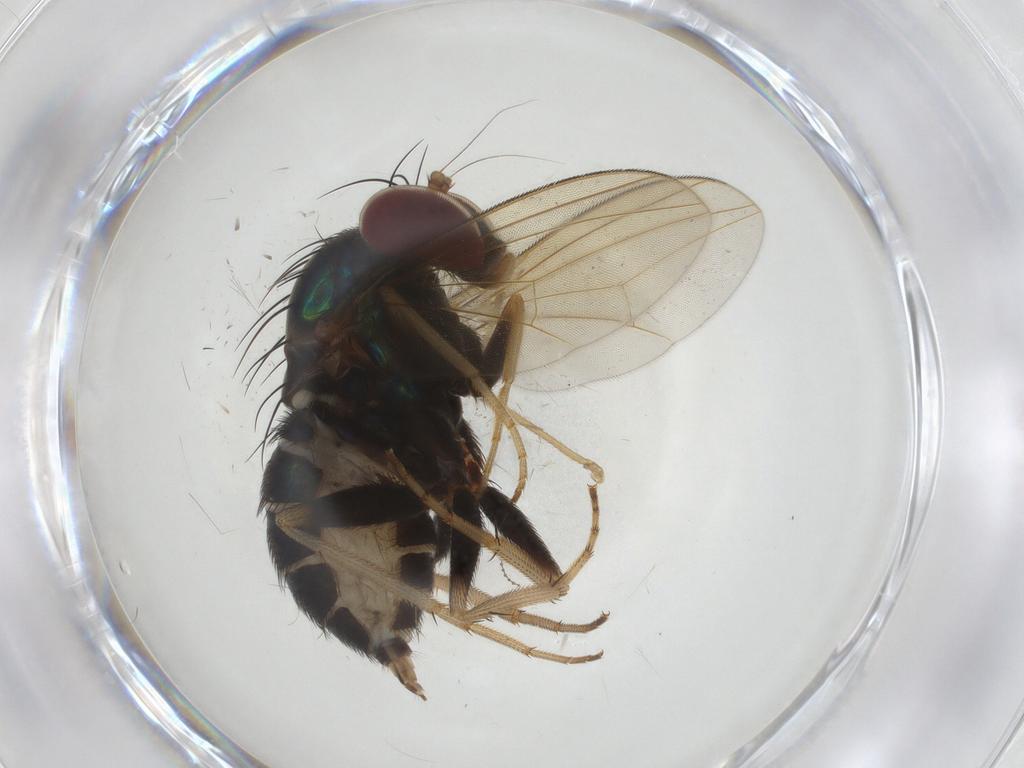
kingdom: Animalia
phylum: Arthropoda
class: Insecta
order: Diptera
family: Dolichopodidae
